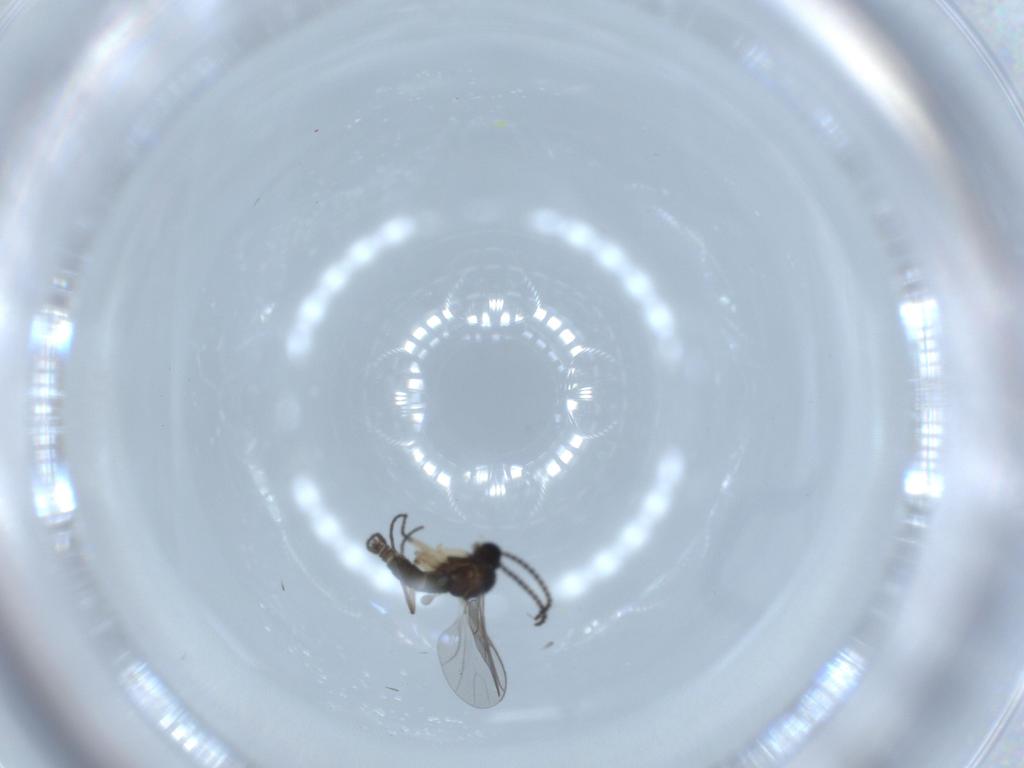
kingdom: Animalia
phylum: Arthropoda
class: Insecta
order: Diptera
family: Sciaridae
